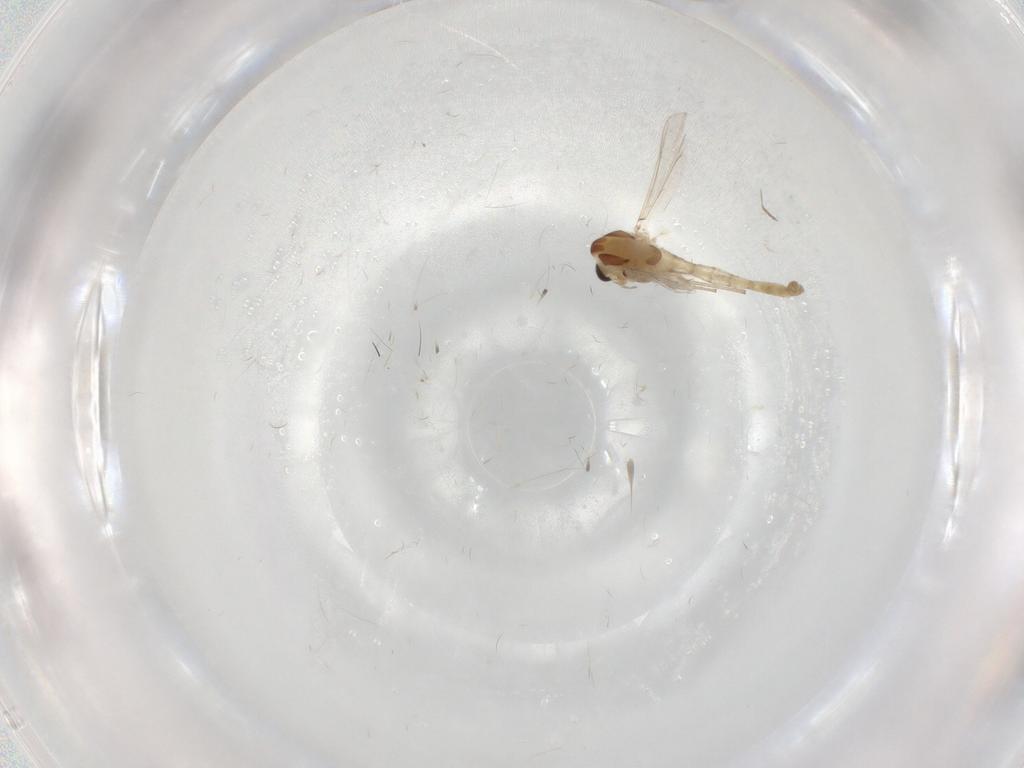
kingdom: Animalia
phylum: Arthropoda
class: Insecta
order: Diptera
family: Chironomidae
